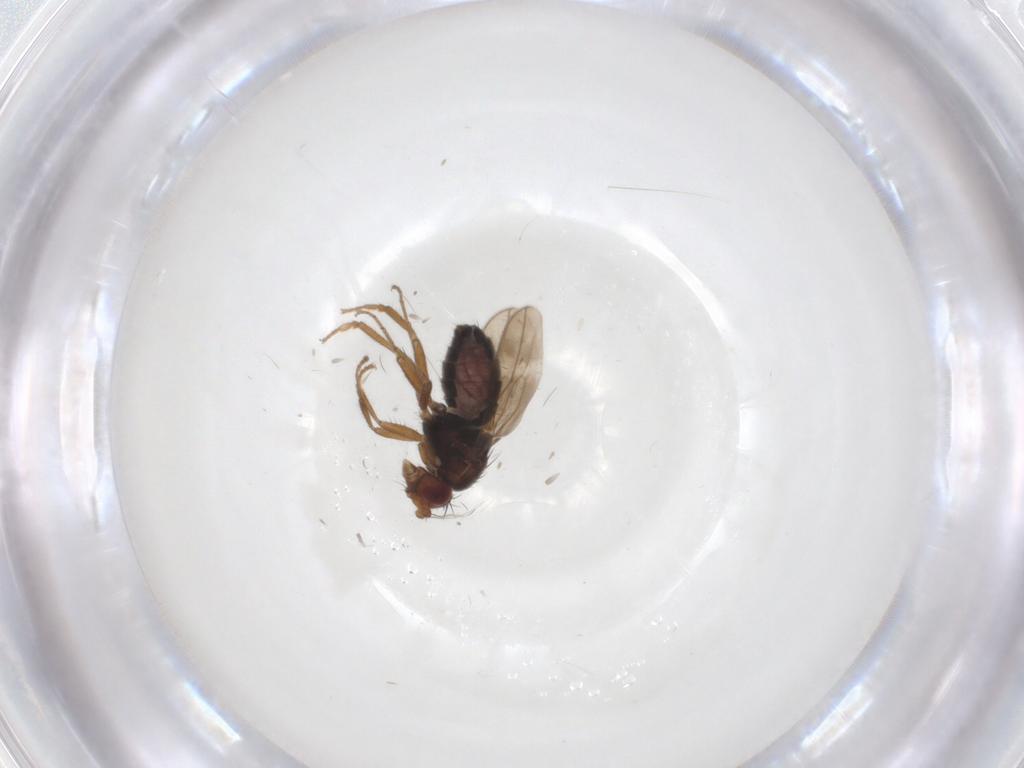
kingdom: Animalia
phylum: Arthropoda
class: Insecta
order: Diptera
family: Sphaeroceridae
